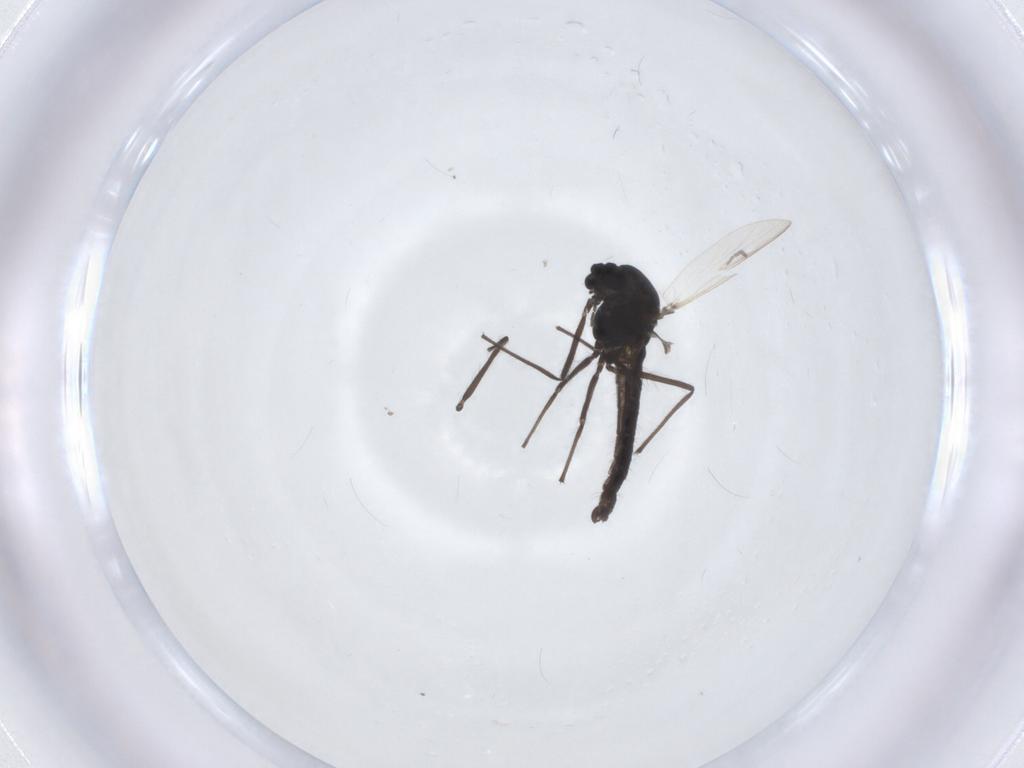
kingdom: Animalia
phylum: Arthropoda
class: Insecta
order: Diptera
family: Chironomidae
